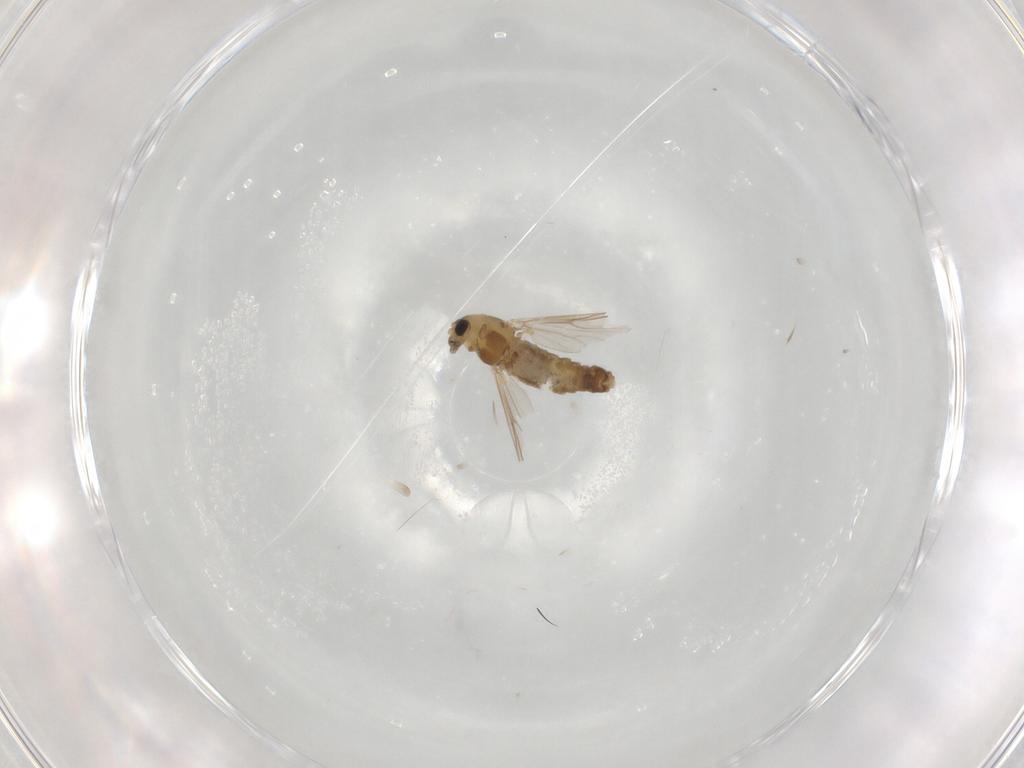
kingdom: Animalia
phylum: Arthropoda
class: Insecta
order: Diptera
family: Chironomidae
